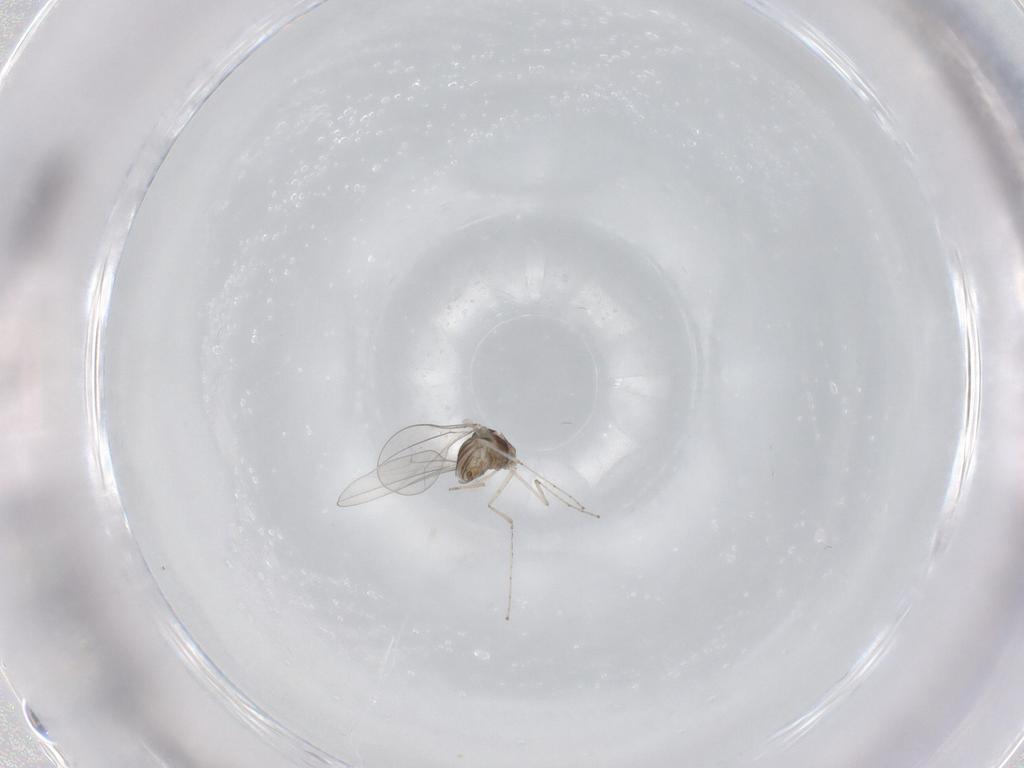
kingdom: Animalia
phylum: Arthropoda
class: Insecta
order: Diptera
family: Cecidomyiidae
